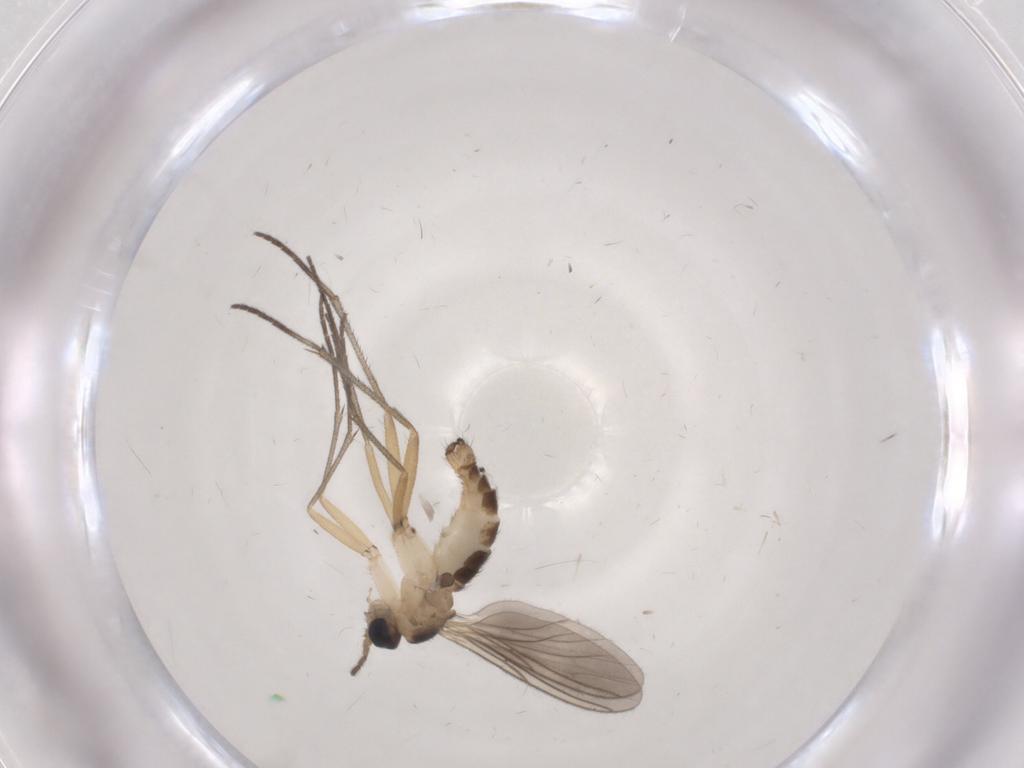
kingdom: Animalia
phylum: Arthropoda
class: Insecta
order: Diptera
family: Sciaridae
